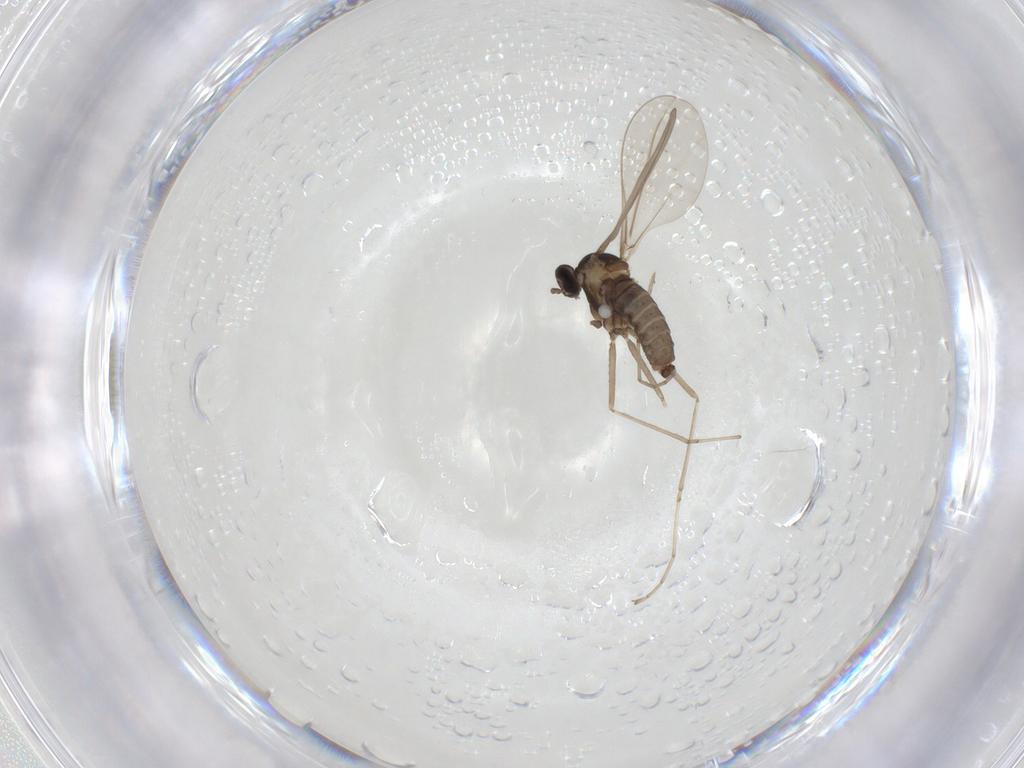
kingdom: Animalia
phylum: Arthropoda
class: Insecta
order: Diptera
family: Cecidomyiidae
